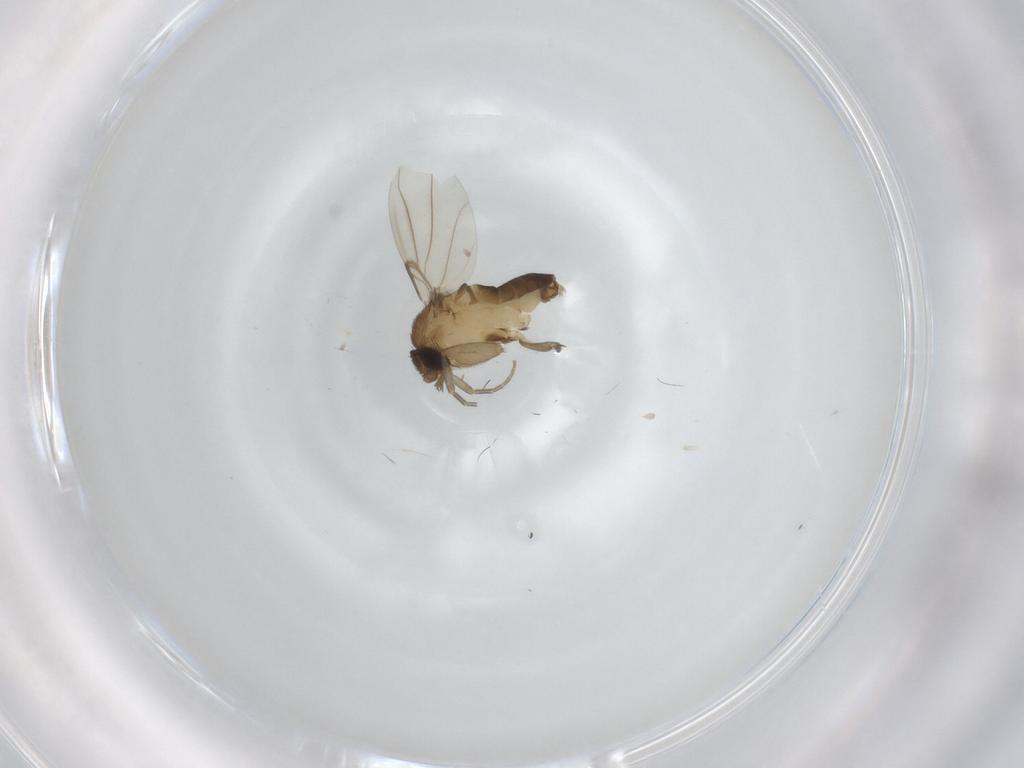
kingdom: Animalia
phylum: Arthropoda
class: Insecta
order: Diptera
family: Phoridae
